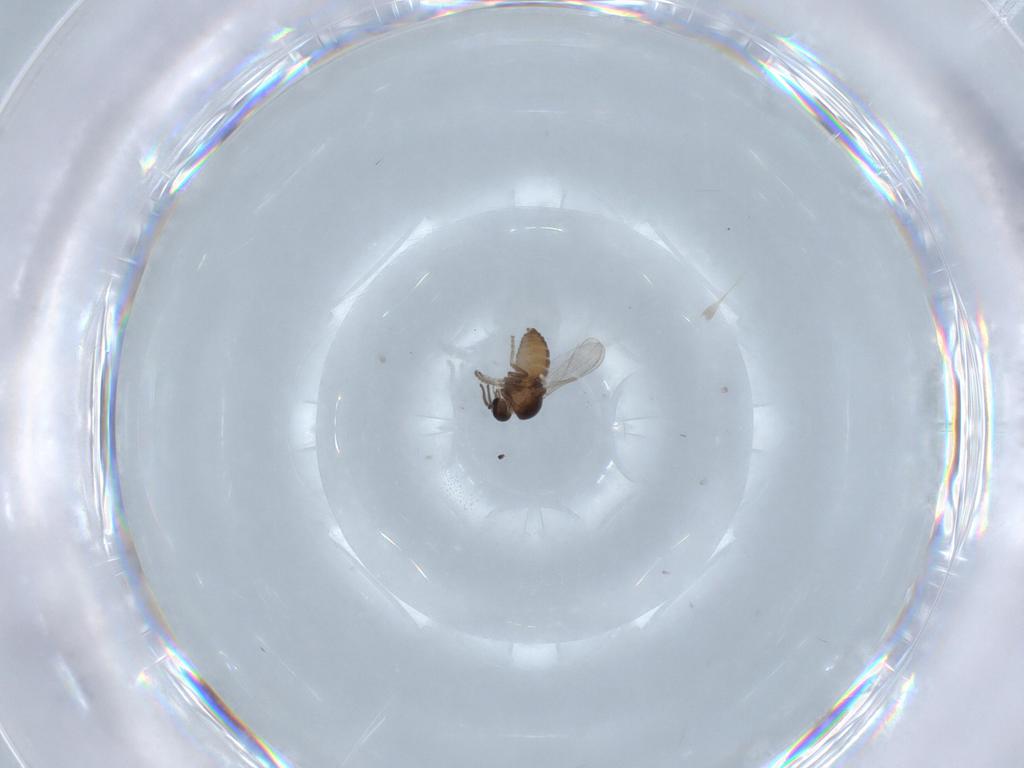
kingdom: Animalia
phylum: Arthropoda
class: Insecta
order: Diptera
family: Ceratopogonidae
